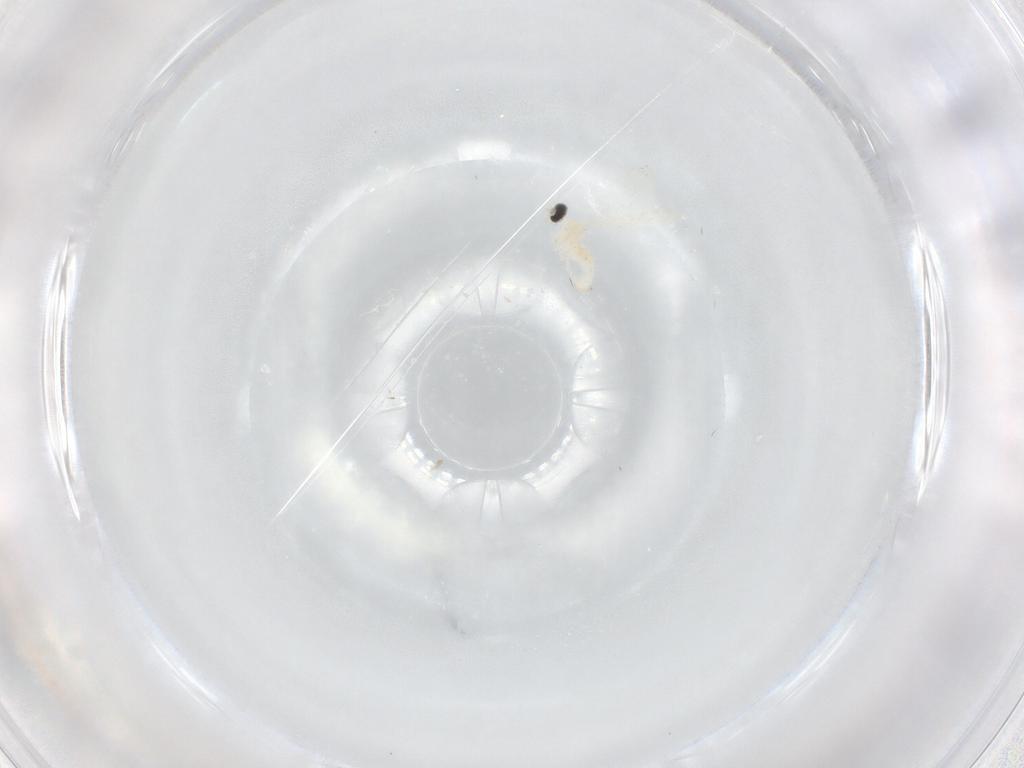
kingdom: Animalia
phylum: Arthropoda
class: Insecta
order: Diptera
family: Cecidomyiidae
